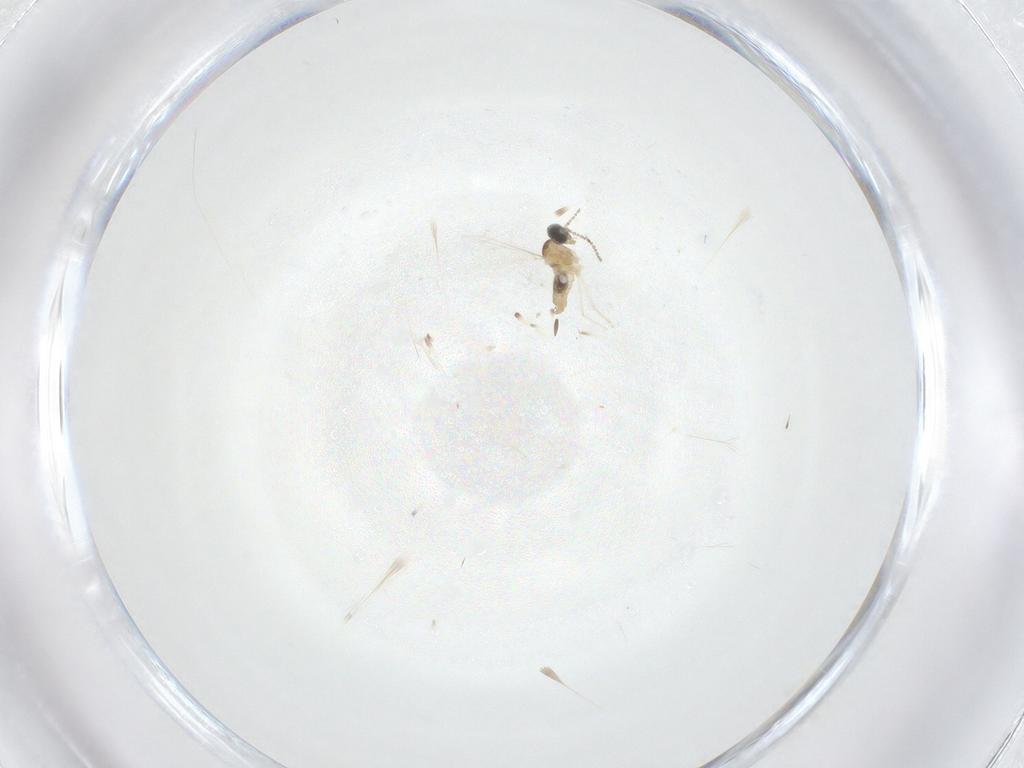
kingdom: Animalia
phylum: Arthropoda
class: Insecta
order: Diptera
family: Cecidomyiidae
